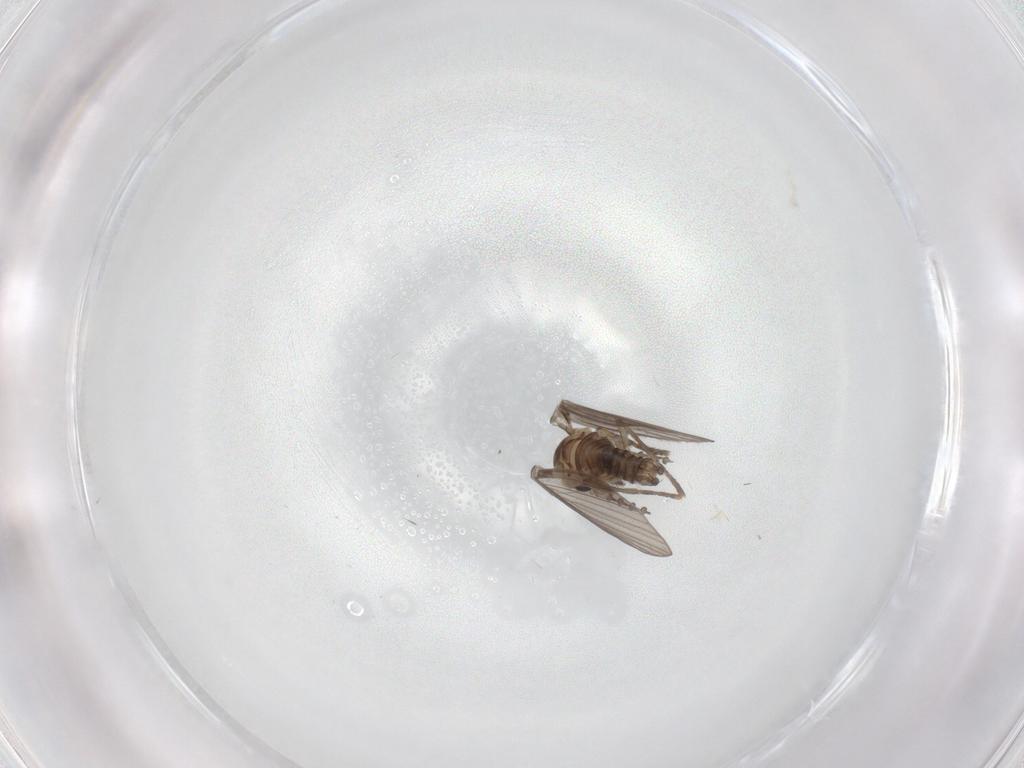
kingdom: Animalia
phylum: Arthropoda
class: Insecta
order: Diptera
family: Psychodidae
